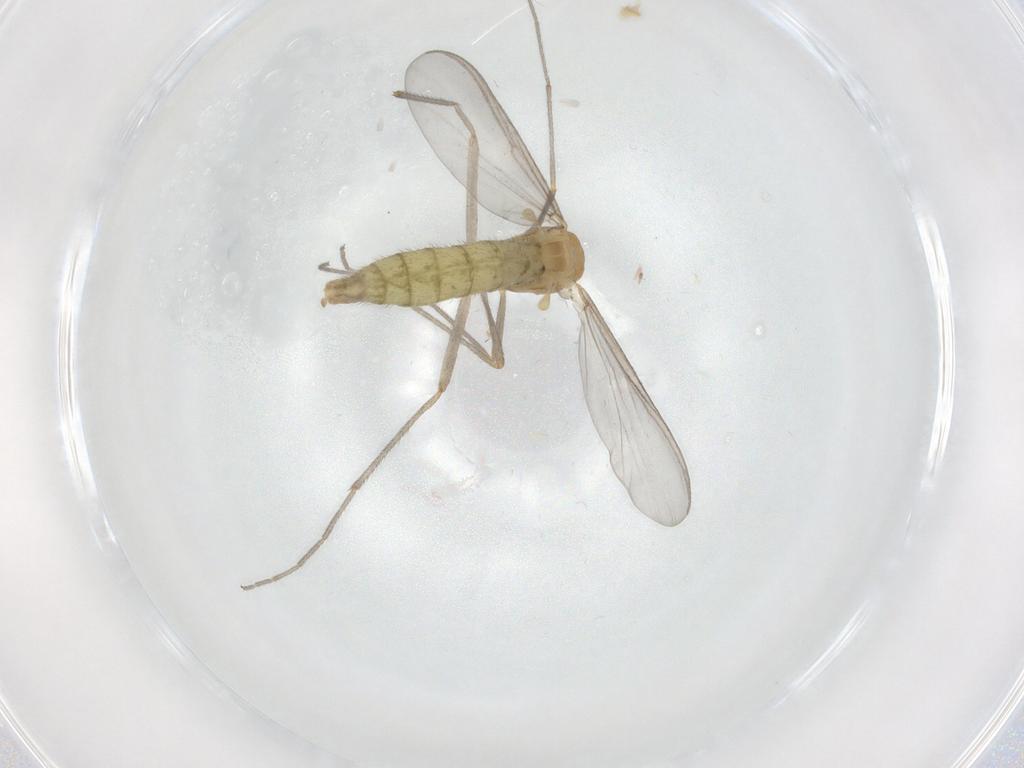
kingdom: Animalia
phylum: Arthropoda
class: Insecta
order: Diptera
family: Chironomidae
